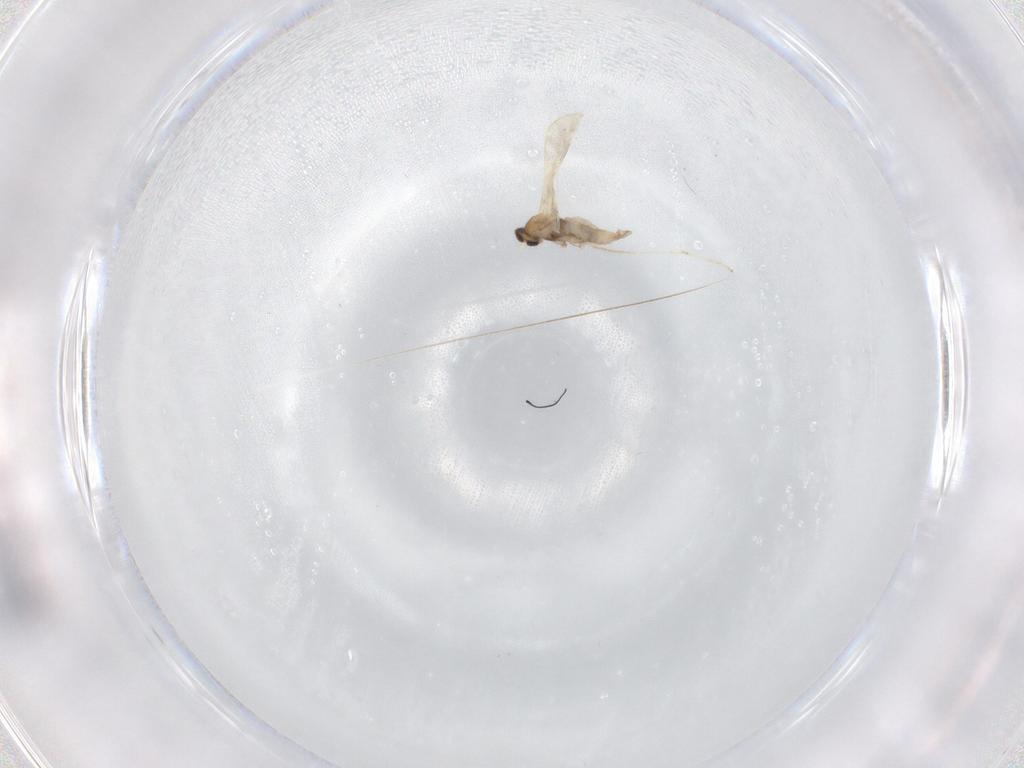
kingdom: Animalia
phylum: Arthropoda
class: Insecta
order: Diptera
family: Cecidomyiidae
